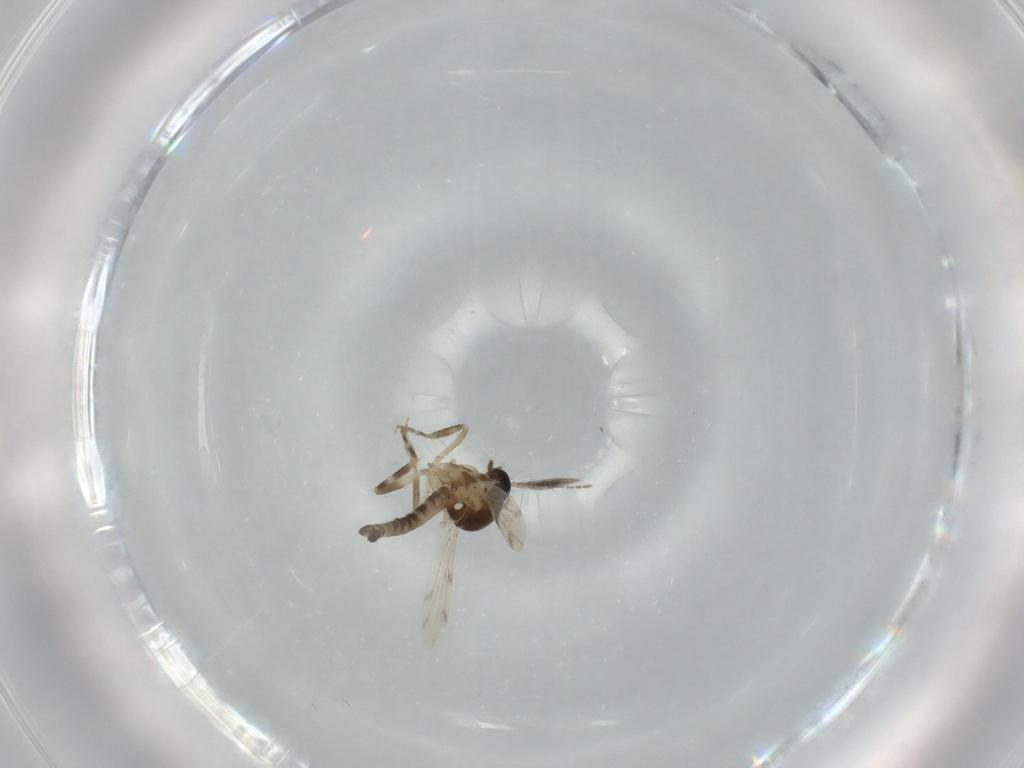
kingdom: Animalia
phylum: Arthropoda
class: Insecta
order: Diptera
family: Ceratopogonidae
